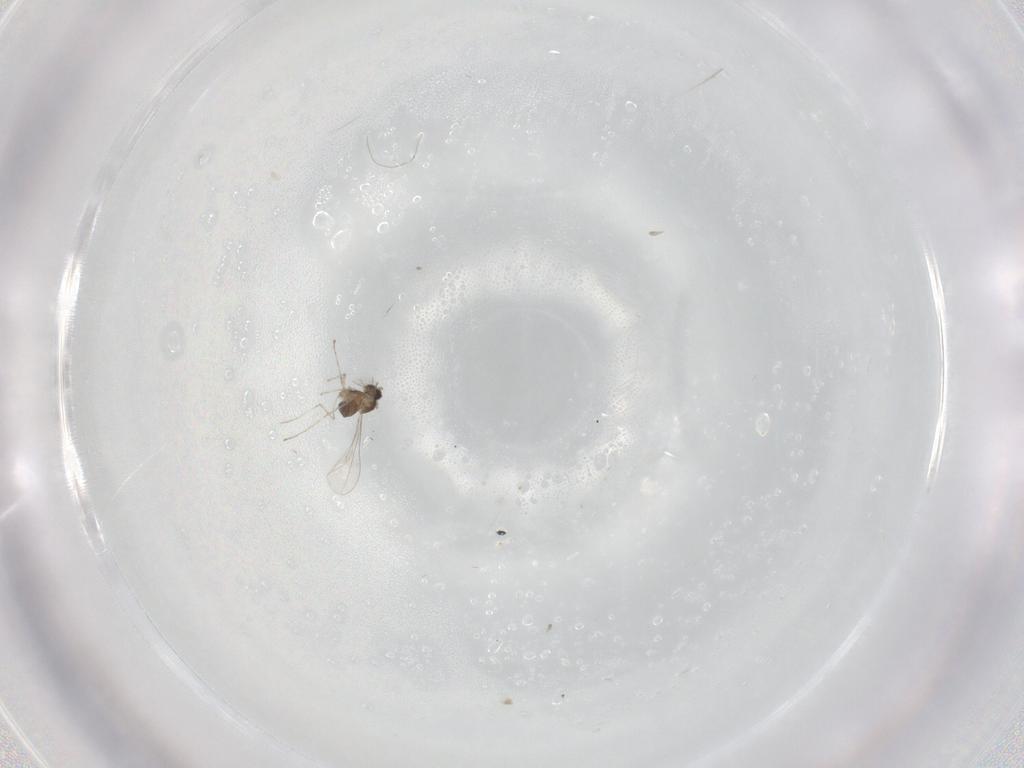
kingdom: Animalia
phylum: Arthropoda
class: Insecta
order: Diptera
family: Cecidomyiidae
